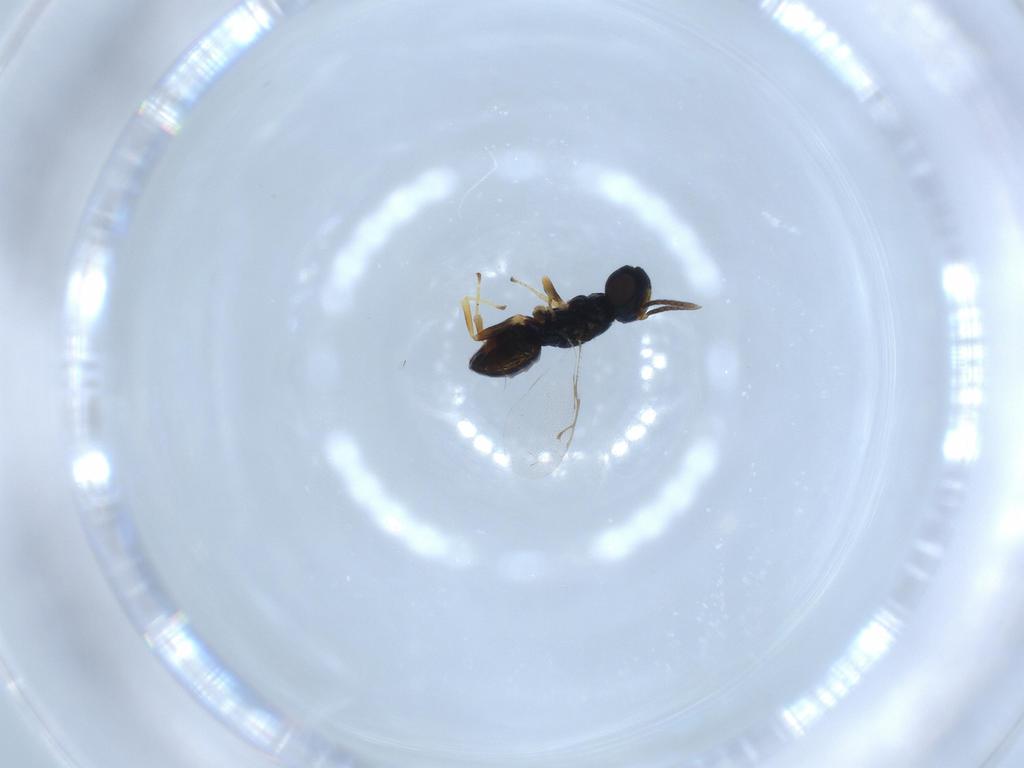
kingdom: Animalia
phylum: Arthropoda
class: Insecta
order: Hymenoptera
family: Pteromalidae
